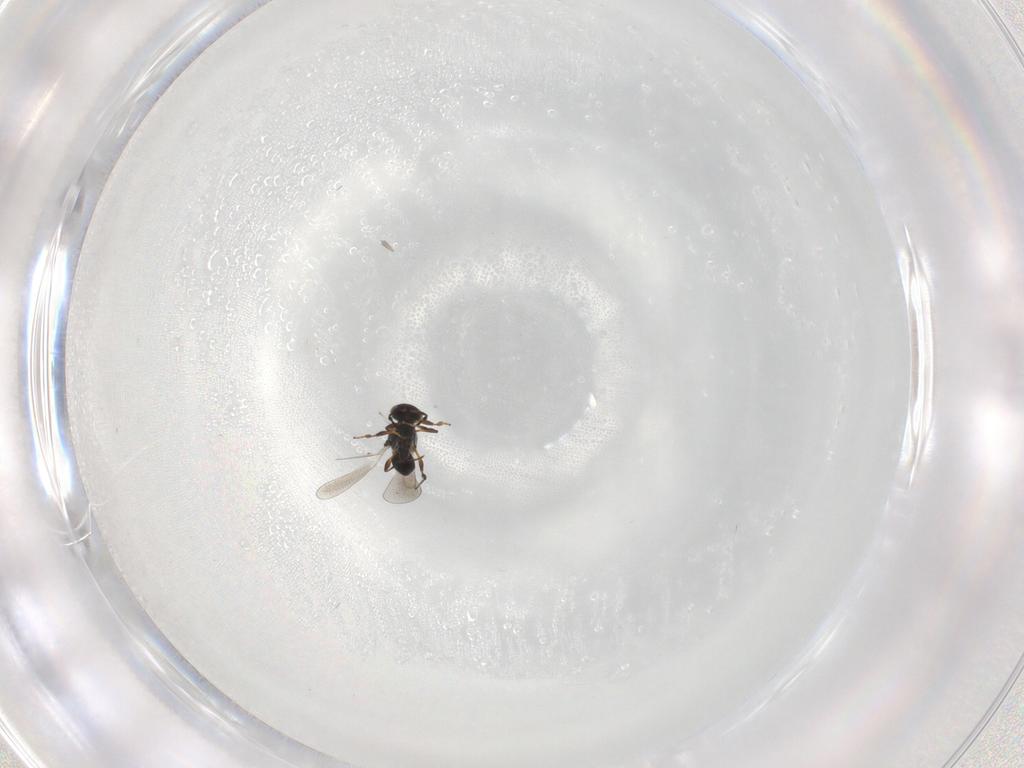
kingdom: Animalia
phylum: Arthropoda
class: Insecta
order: Hymenoptera
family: Platygastridae
